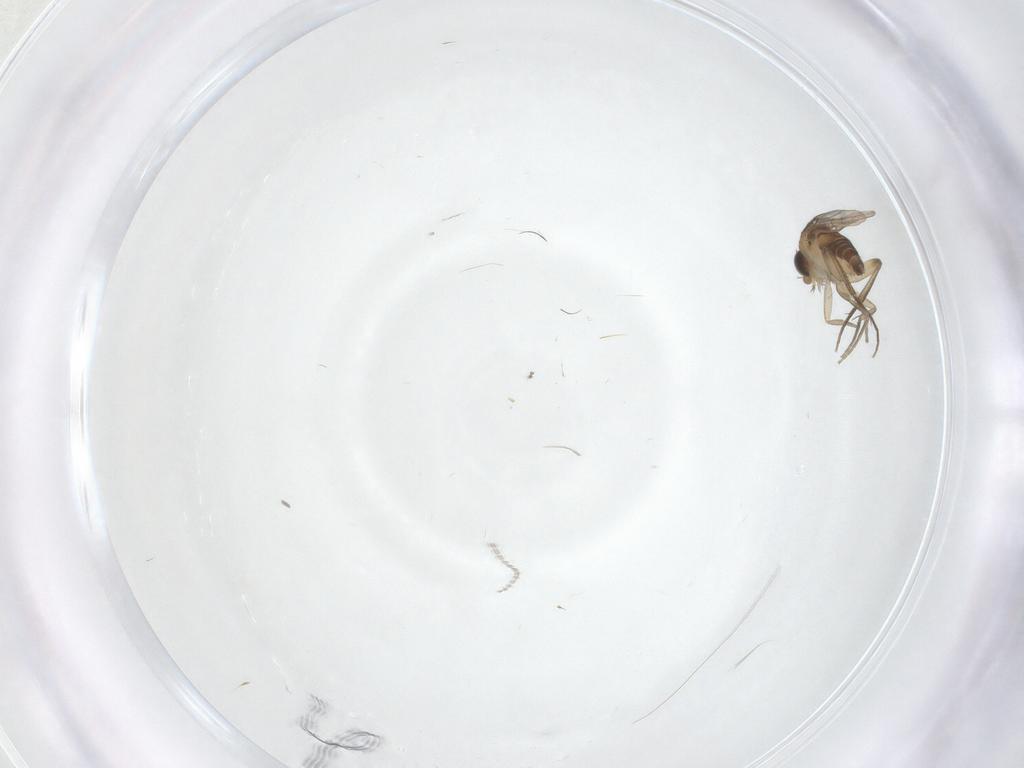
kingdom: Animalia
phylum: Arthropoda
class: Insecta
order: Diptera
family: Phoridae
